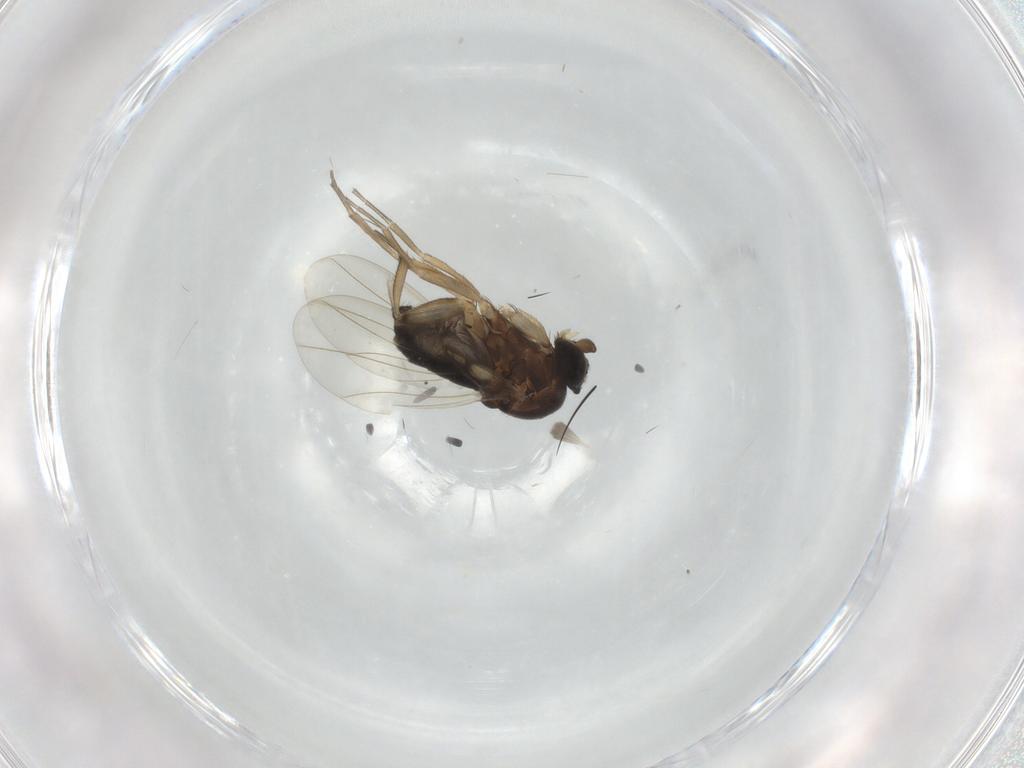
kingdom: Animalia
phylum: Arthropoda
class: Insecta
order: Diptera
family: Phoridae
